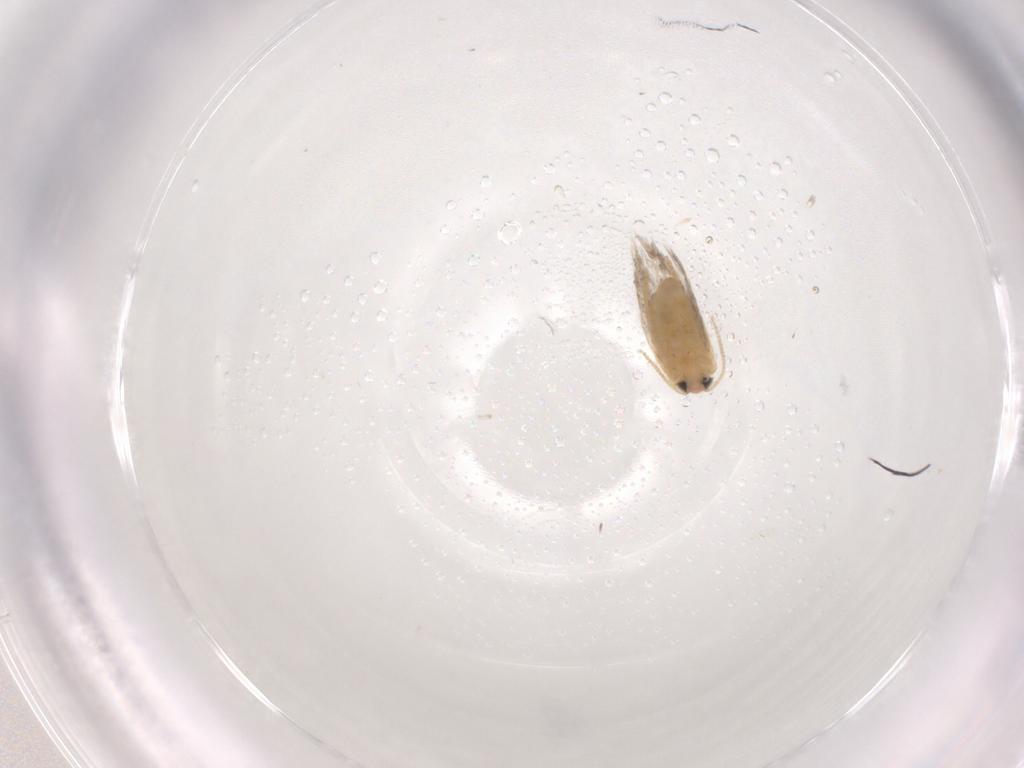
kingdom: Animalia
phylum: Arthropoda
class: Insecta
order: Lepidoptera
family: Nepticulidae
